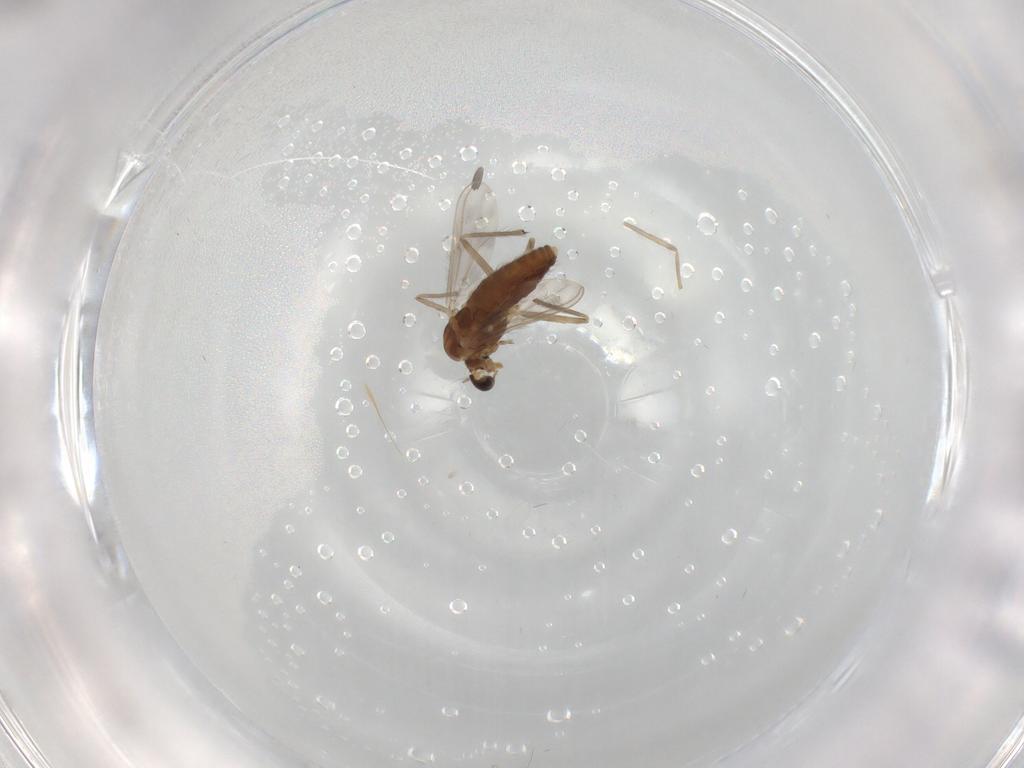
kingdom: Animalia
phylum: Arthropoda
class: Insecta
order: Diptera
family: Chironomidae
